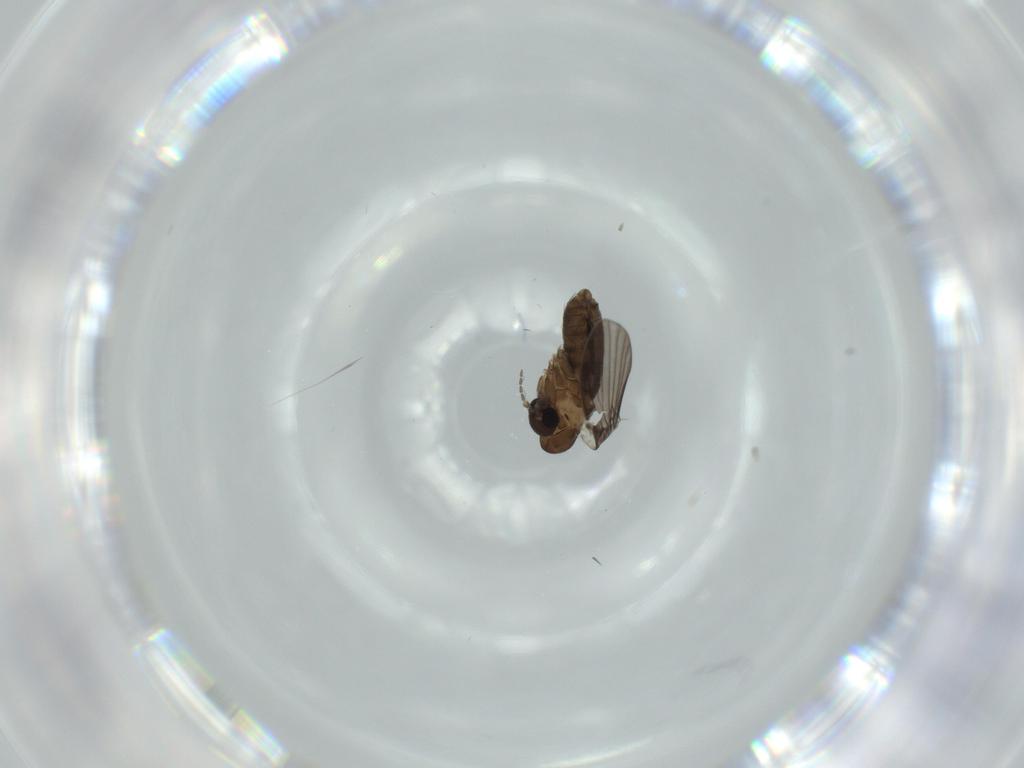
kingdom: Animalia
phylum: Arthropoda
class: Insecta
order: Diptera
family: Psychodidae
